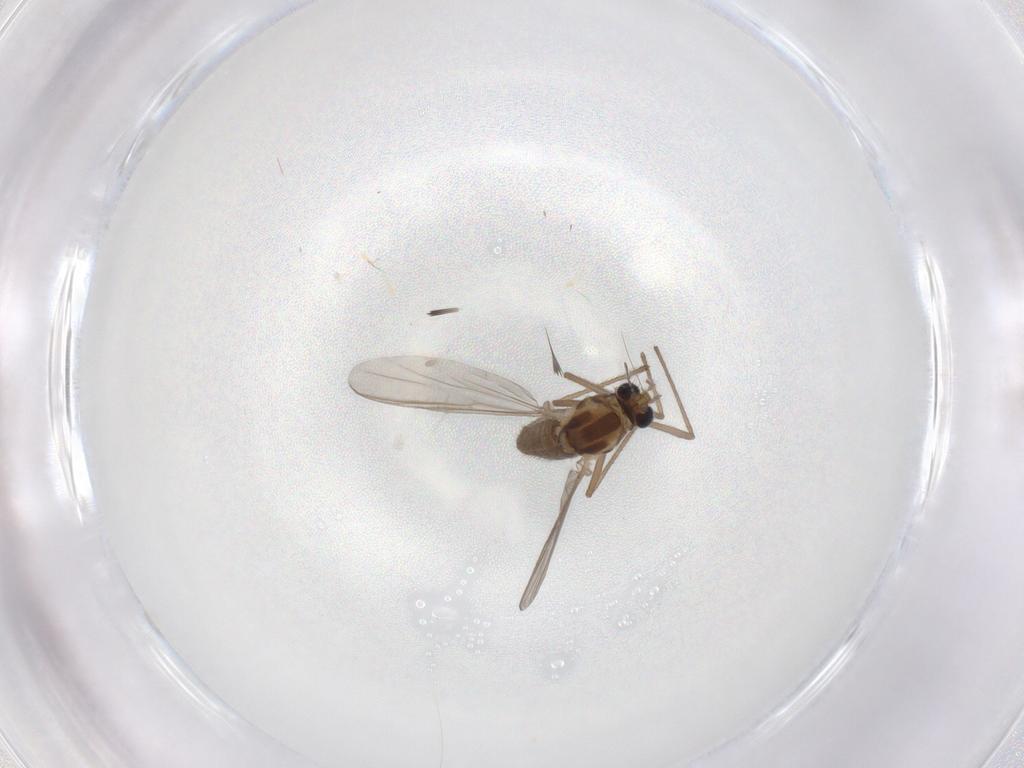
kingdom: Animalia
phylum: Arthropoda
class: Insecta
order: Diptera
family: Chironomidae
